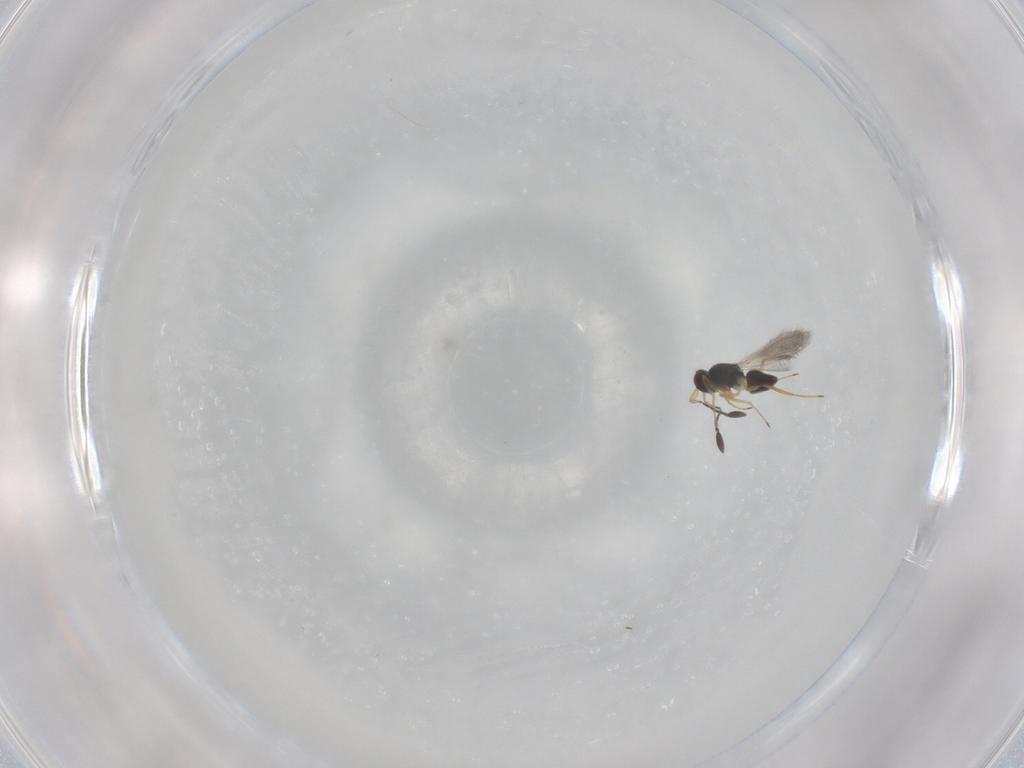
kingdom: Animalia
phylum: Arthropoda
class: Insecta
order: Hymenoptera
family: Mymaridae
